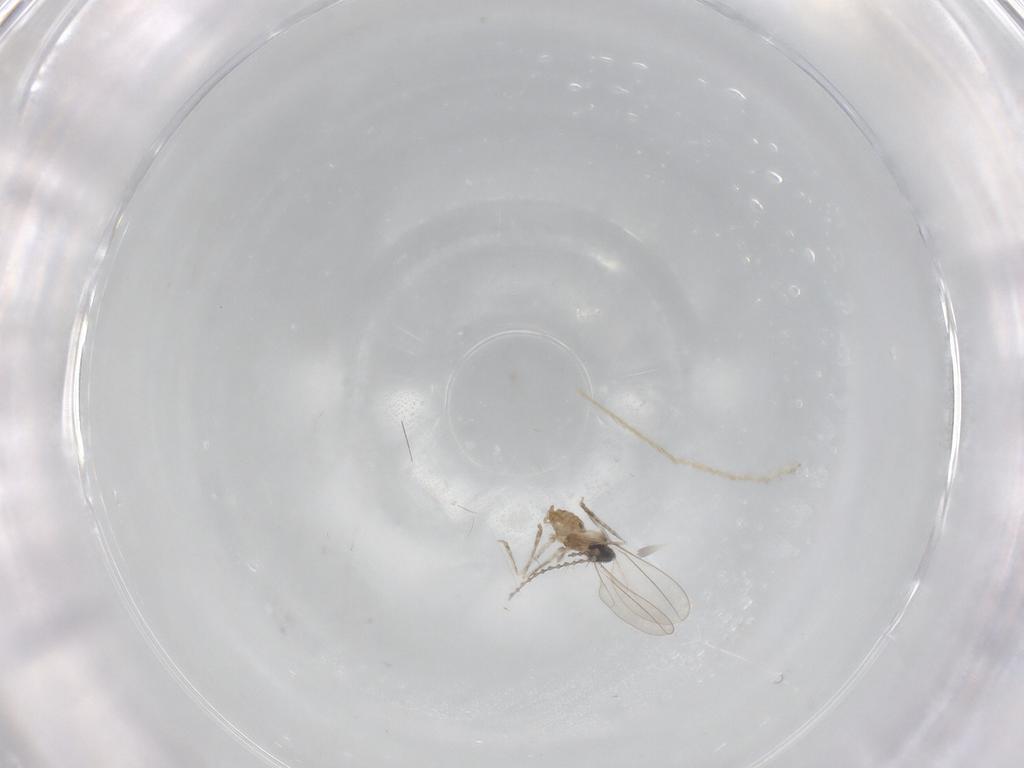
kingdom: Animalia
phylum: Arthropoda
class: Insecta
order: Diptera
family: Cecidomyiidae
